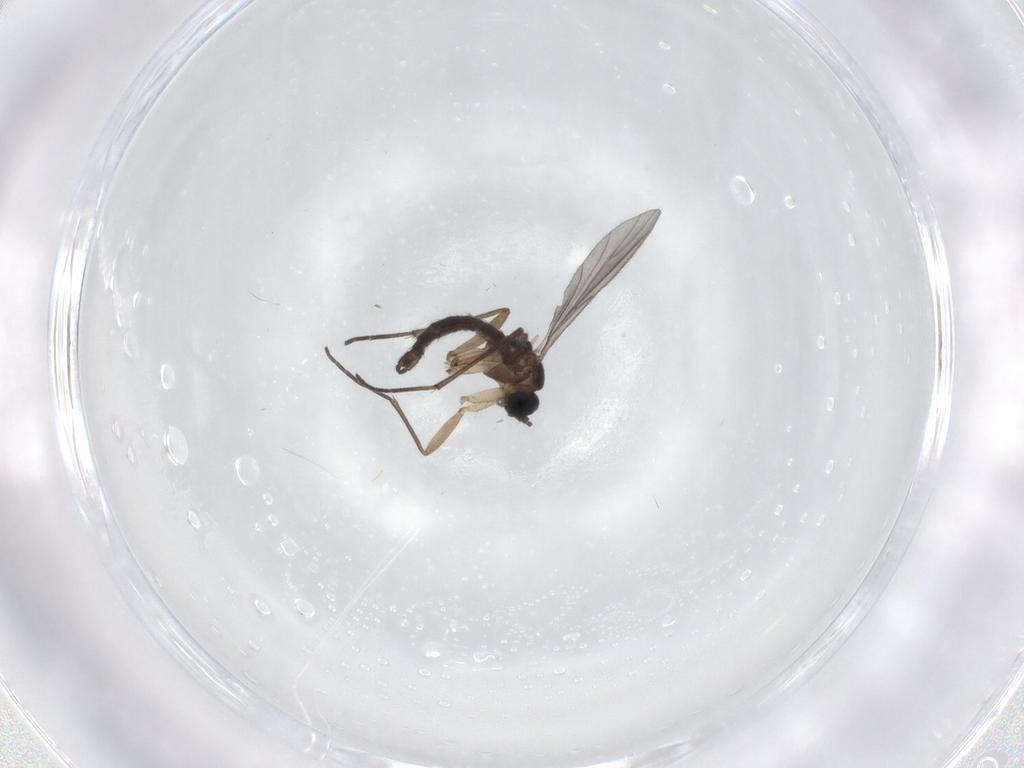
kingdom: Animalia
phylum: Arthropoda
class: Insecta
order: Diptera
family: Sciaridae
